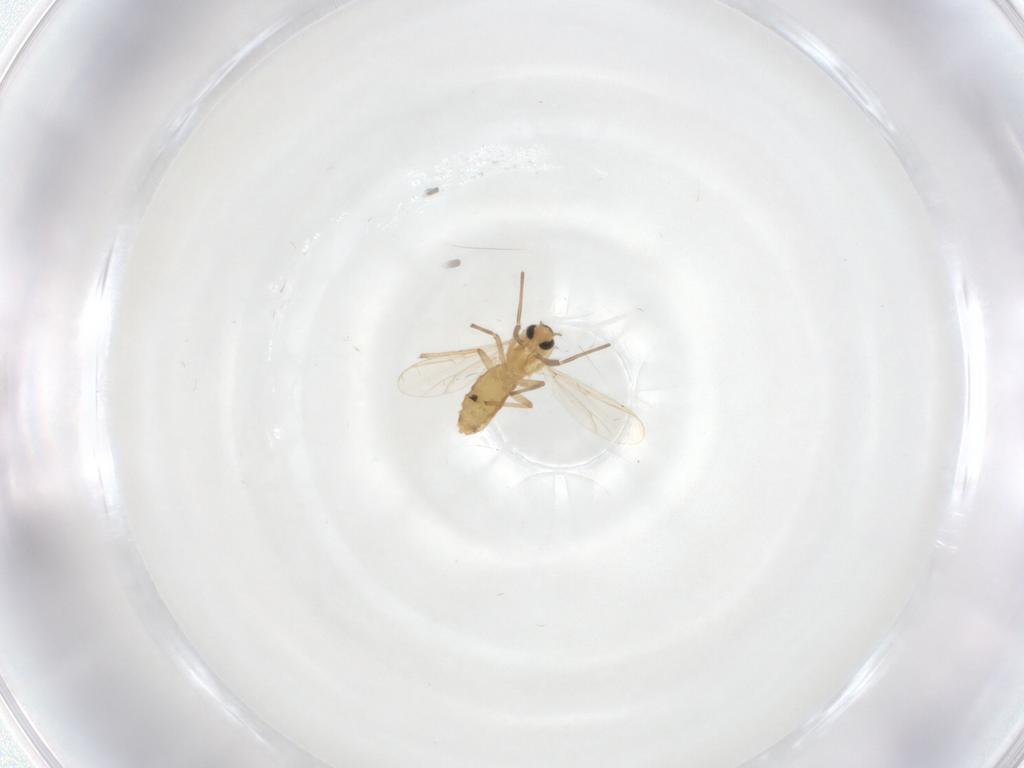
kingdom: Animalia
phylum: Arthropoda
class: Insecta
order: Diptera
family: Chironomidae
